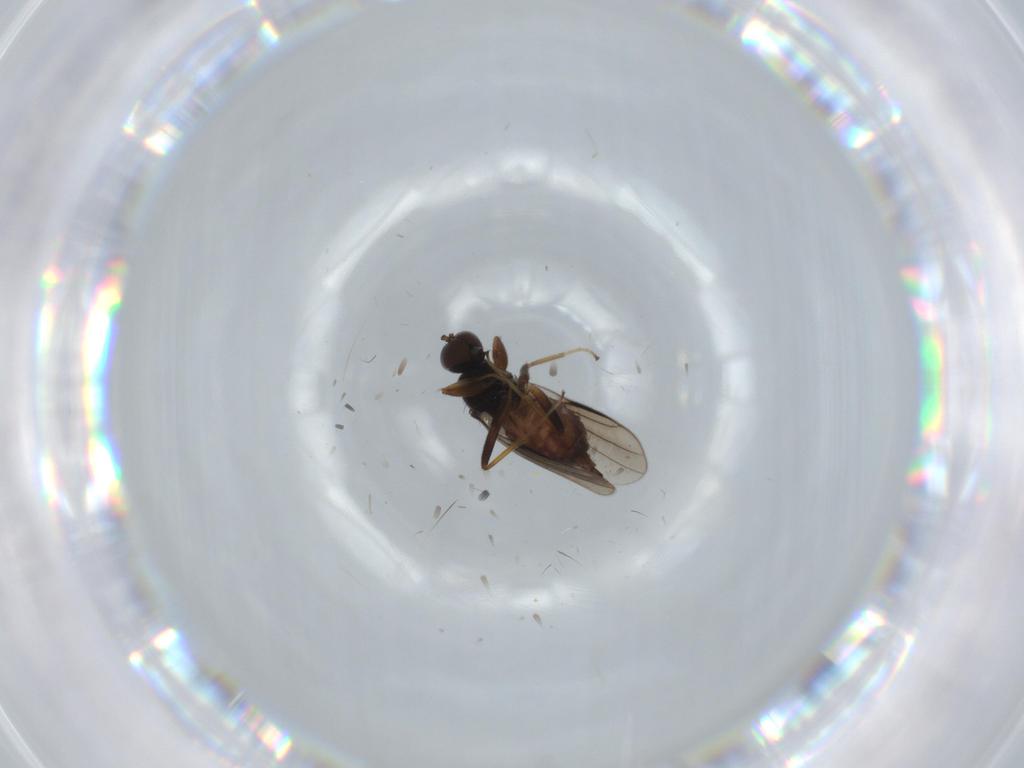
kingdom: Animalia
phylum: Arthropoda
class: Insecta
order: Diptera
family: Hybotidae
